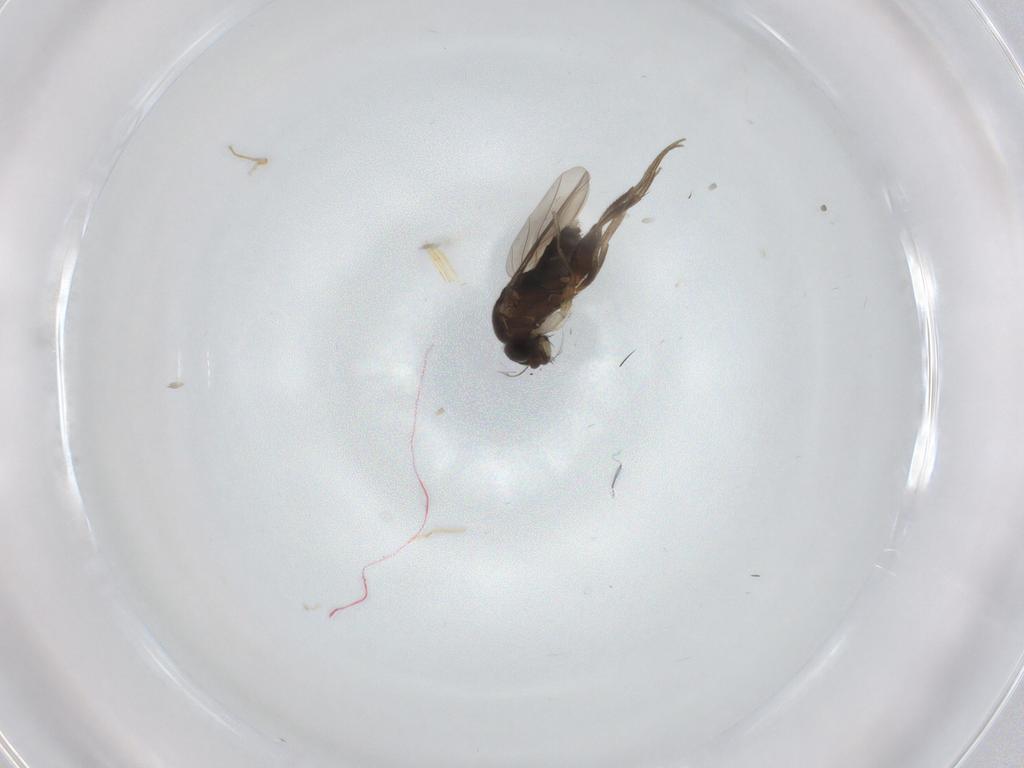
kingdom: Animalia
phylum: Arthropoda
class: Insecta
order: Diptera
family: Phoridae
